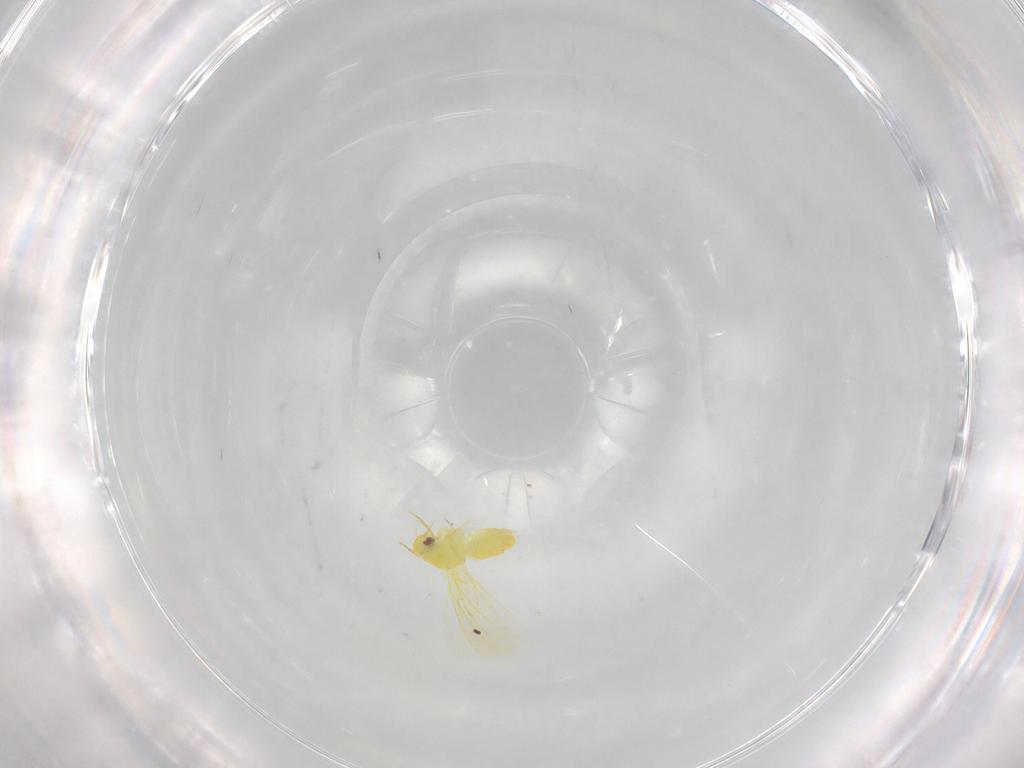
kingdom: Animalia
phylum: Arthropoda
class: Insecta
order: Hemiptera
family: Aleyrodidae
